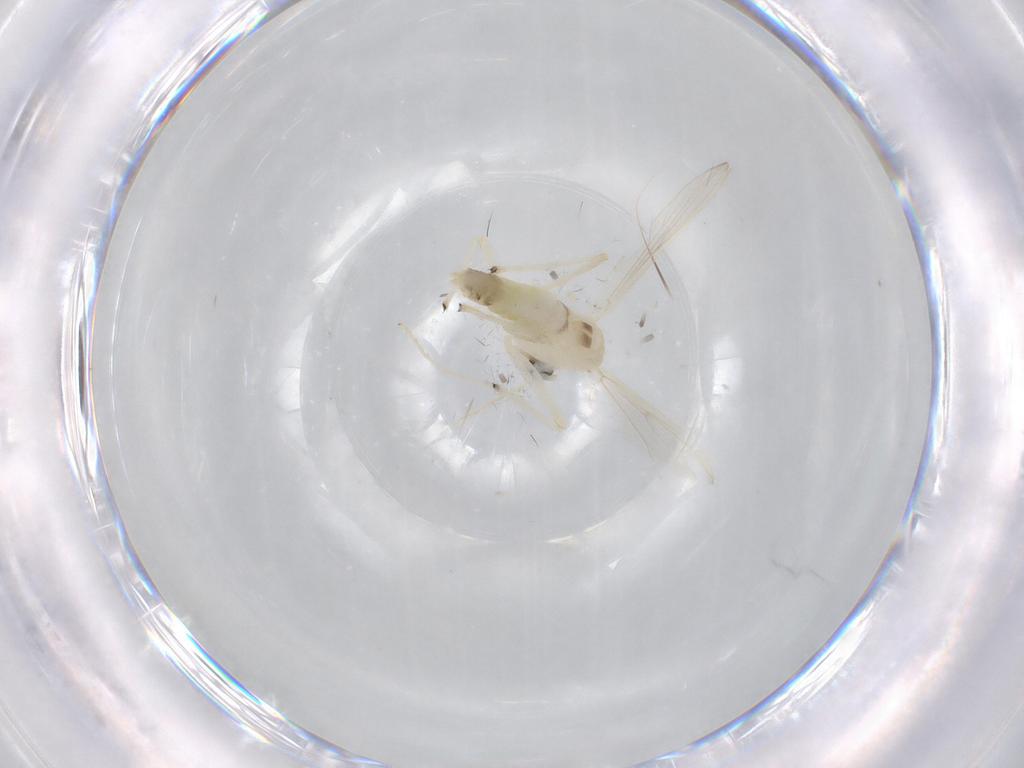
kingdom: Animalia
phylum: Arthropoda
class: Insecta
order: Diptera
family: Chironomidae
